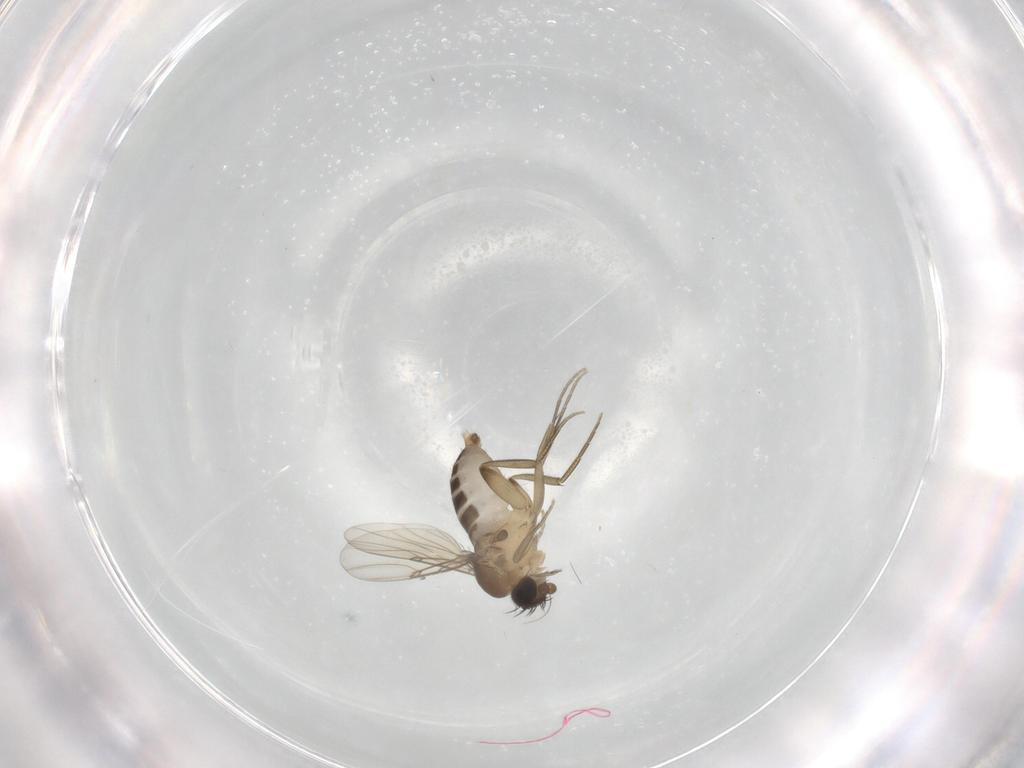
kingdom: Animalia
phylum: Arthropoda
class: Insecta
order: Diptera
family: Phoridae
